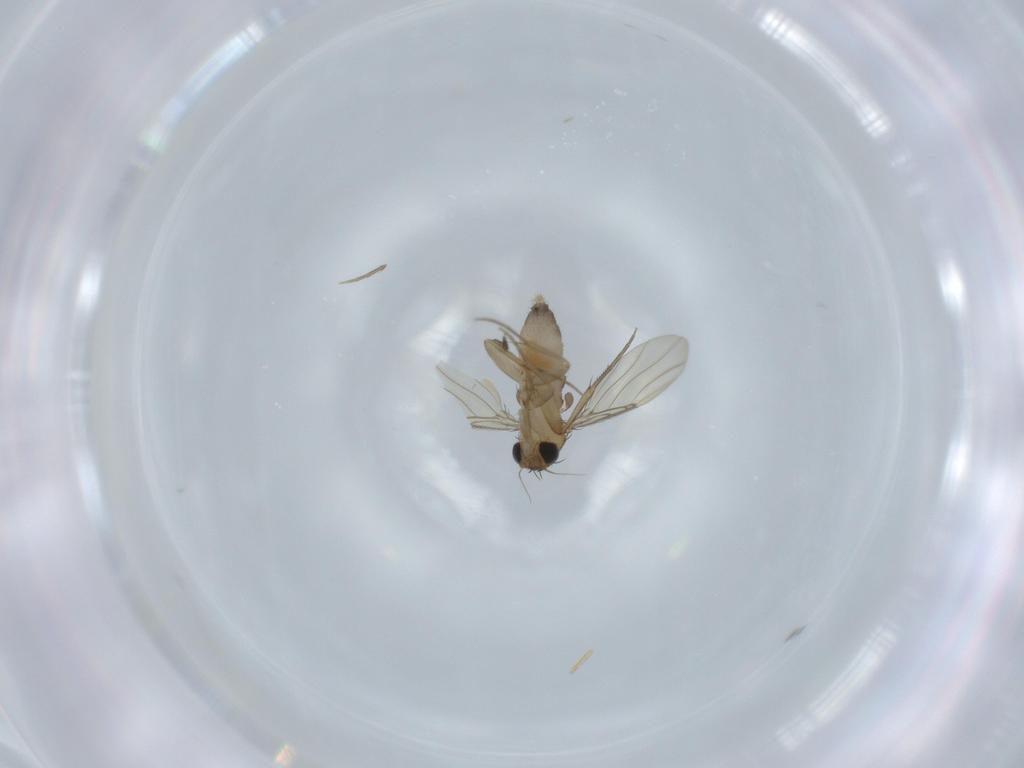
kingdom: Animalia
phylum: Arthropoda
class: Insecta
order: Diptera
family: Phoridae
